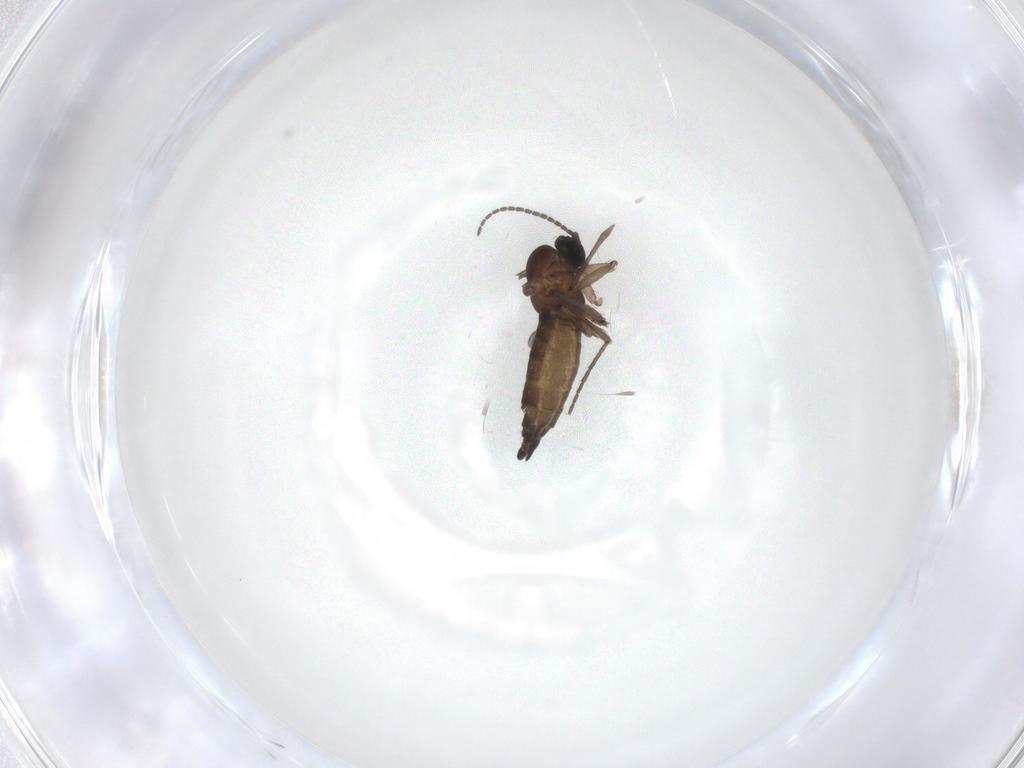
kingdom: Animalia
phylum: Arthropoda
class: Insecta
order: Diptera
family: Sciaridae
